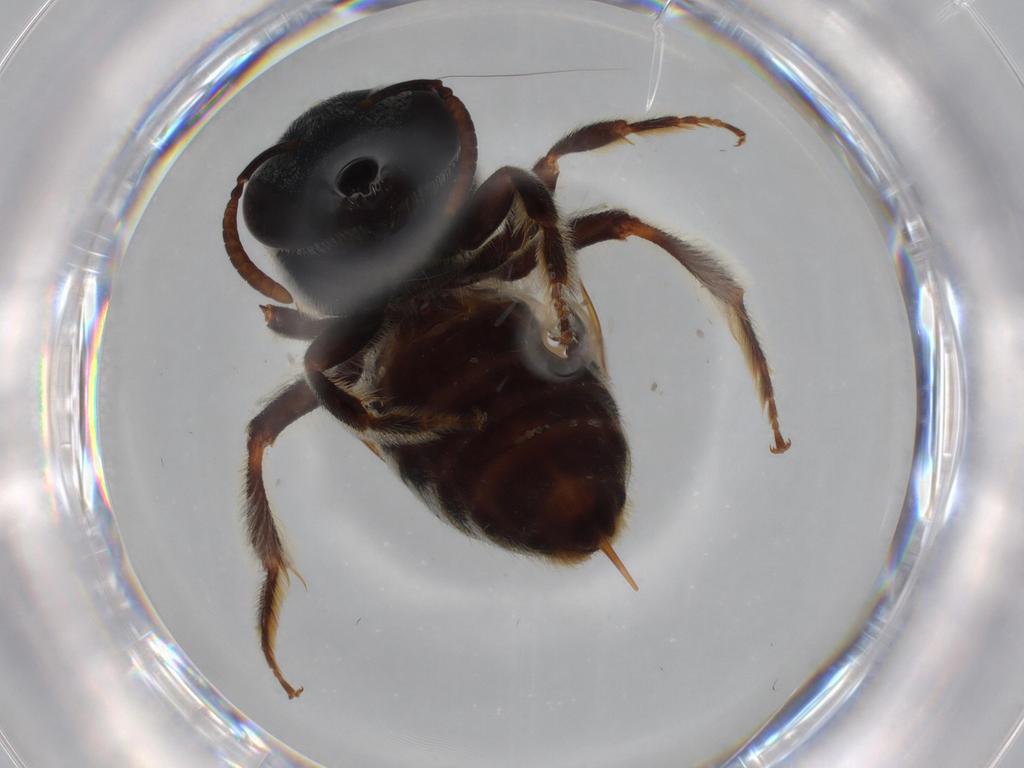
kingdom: Animalia
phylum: Arthropoda
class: Insecta
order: Hymenoptera
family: Halictidae
